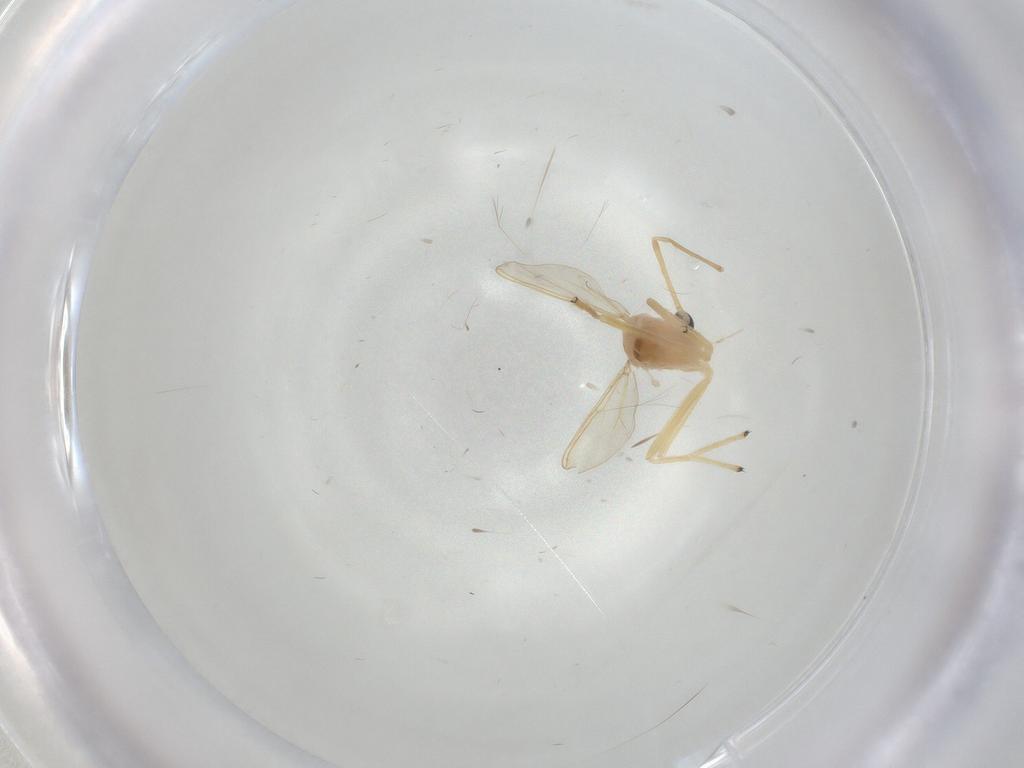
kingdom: Animalia
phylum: Arthropoda
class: Insecta
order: Diptera
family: Chironomidae
